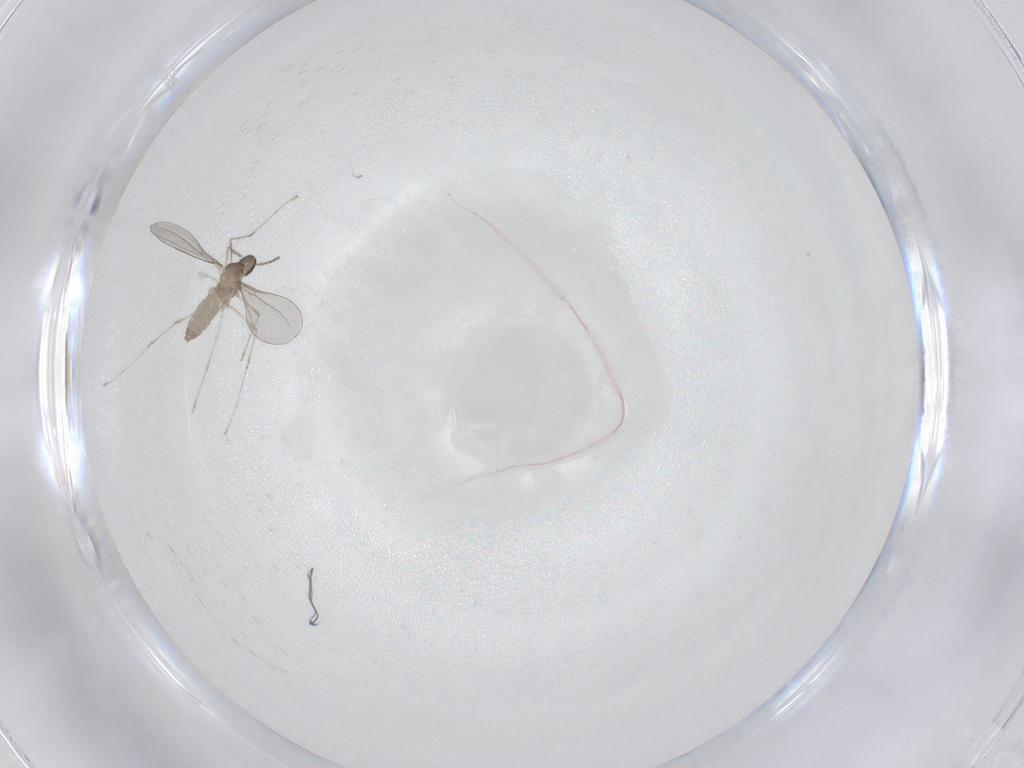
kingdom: Animalia
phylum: Arthropoda
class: Insecta
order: Diptera
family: Cecidomyiidae
